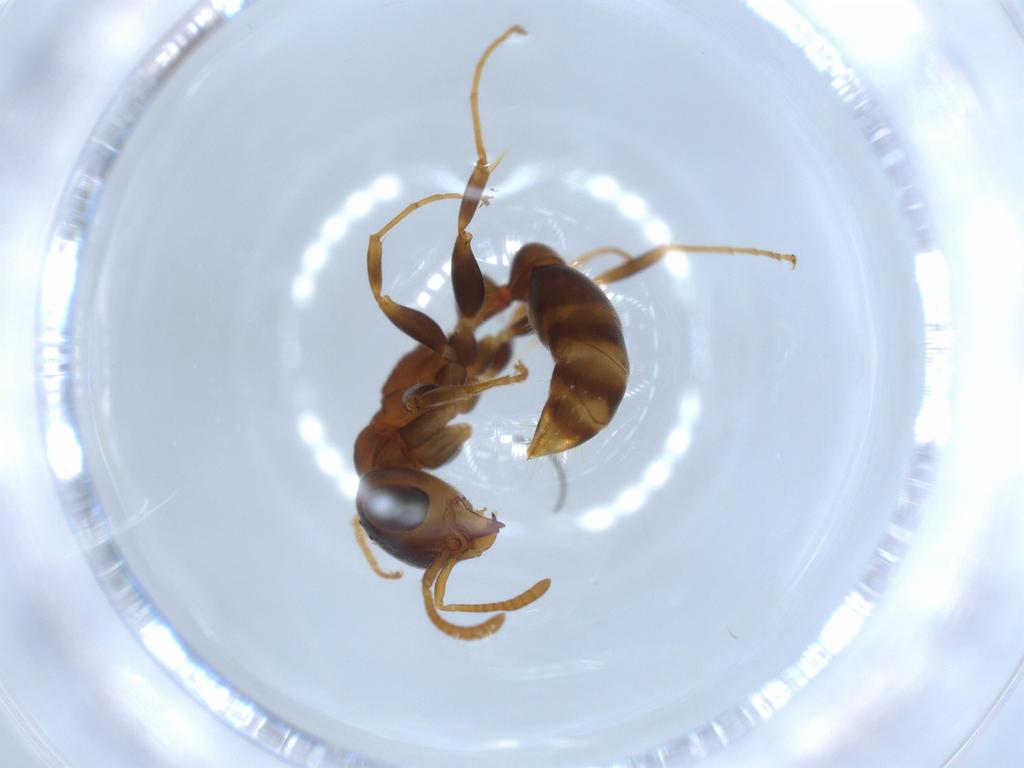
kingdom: Animalia
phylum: Arthropoda
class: Insecta
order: Hymenoptera
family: Formicidae
